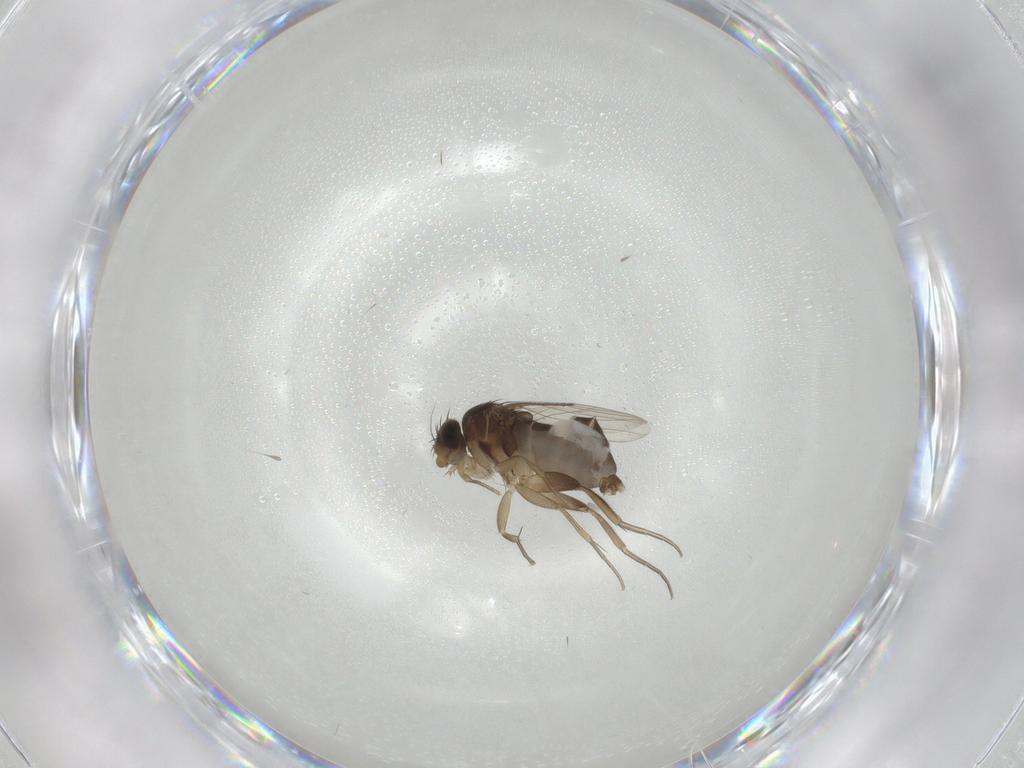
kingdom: Animalia
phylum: Arthropoda
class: Insecta
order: Diptera
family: Phoridae
